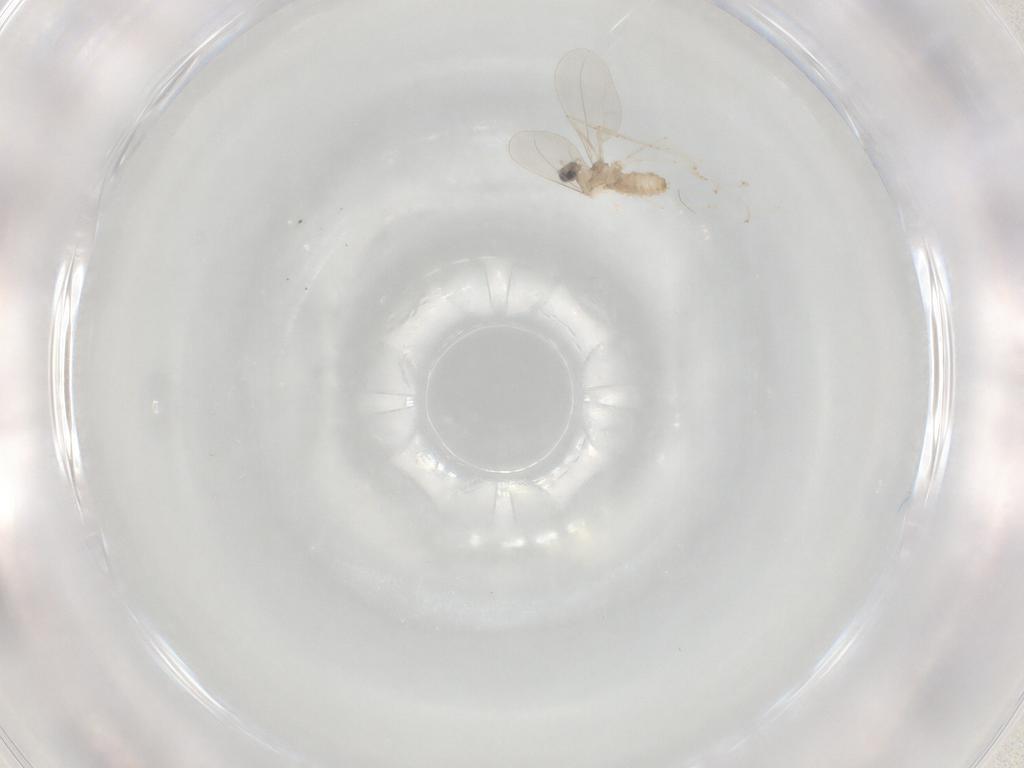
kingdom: Animalia
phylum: Arthropoda
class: Insecta
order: Diptera
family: Cecidomyiidae
